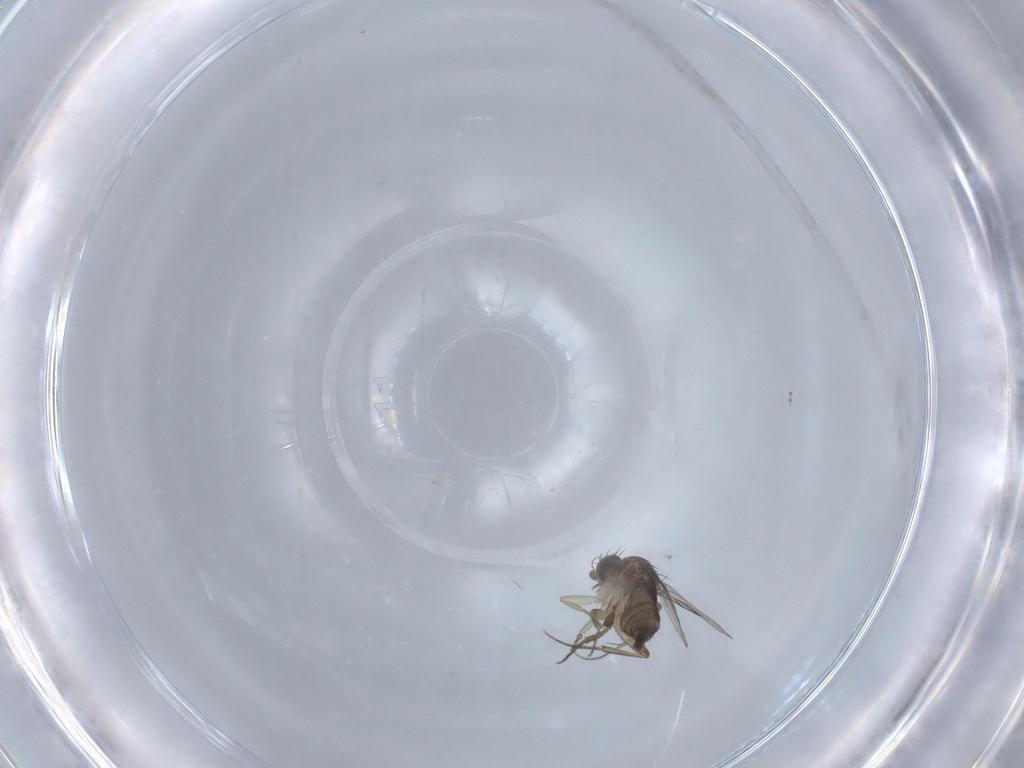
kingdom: Animalia
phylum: Arthropoda
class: Insecta
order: Diptera
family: Phoridae
